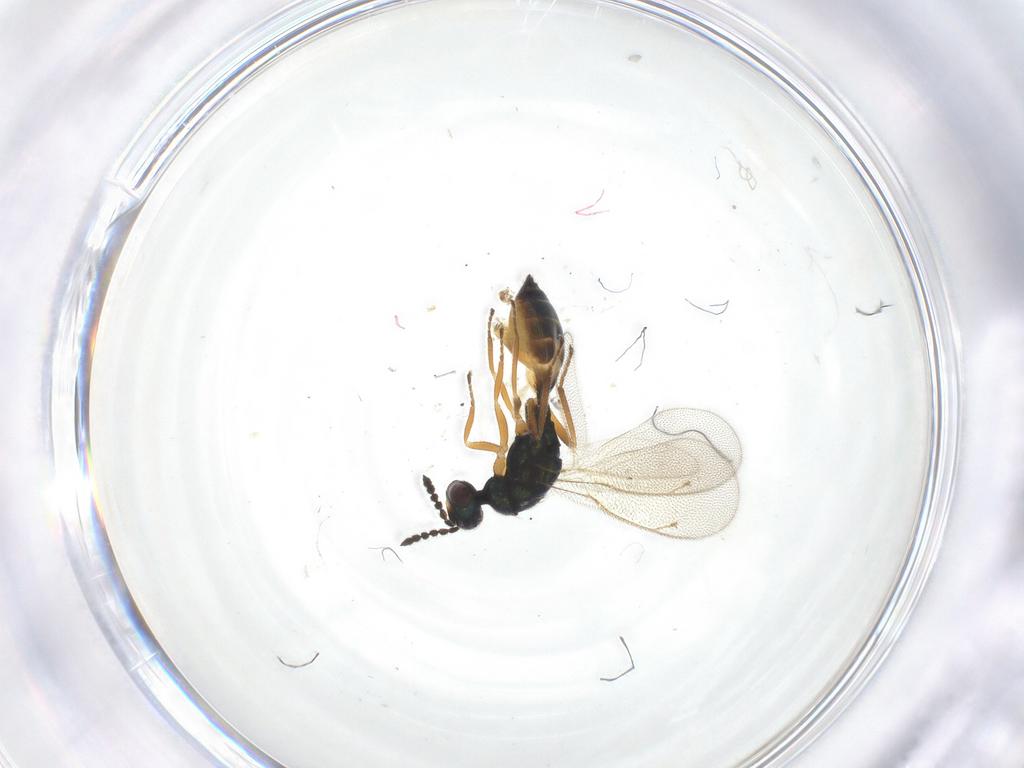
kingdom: Animalia
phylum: Arthropoda
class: Insecta
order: Hymenoptera
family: Eulophidae
